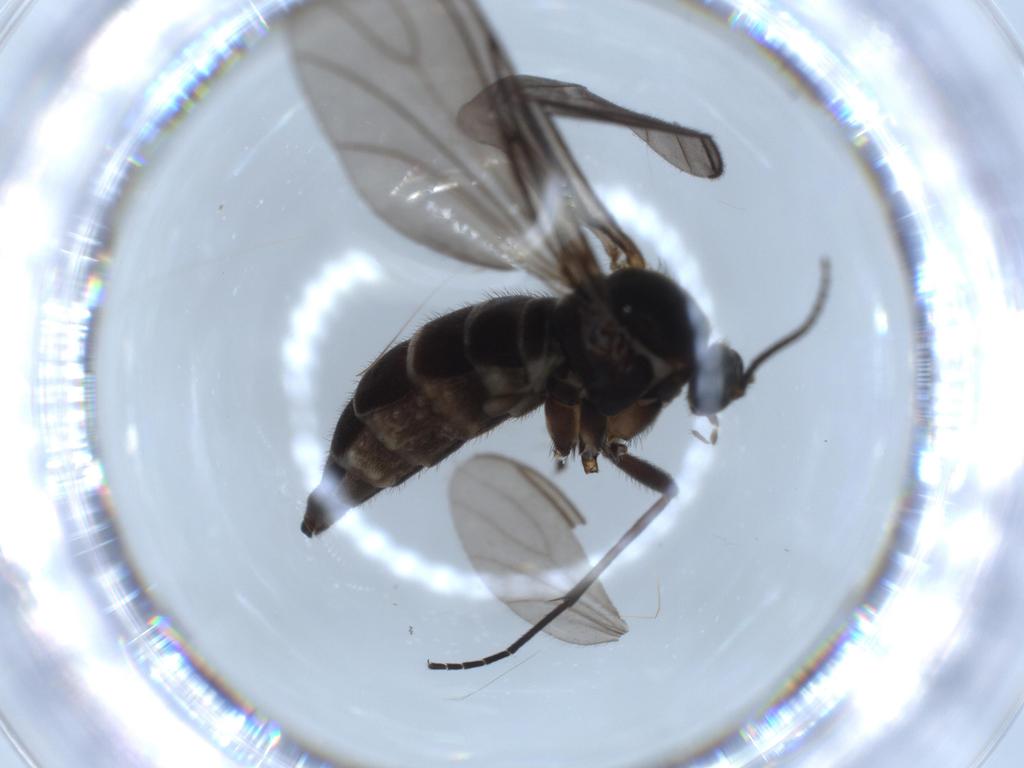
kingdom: Animalia
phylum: Arthropoda
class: Insecta
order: Diptera
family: Sciaridae
